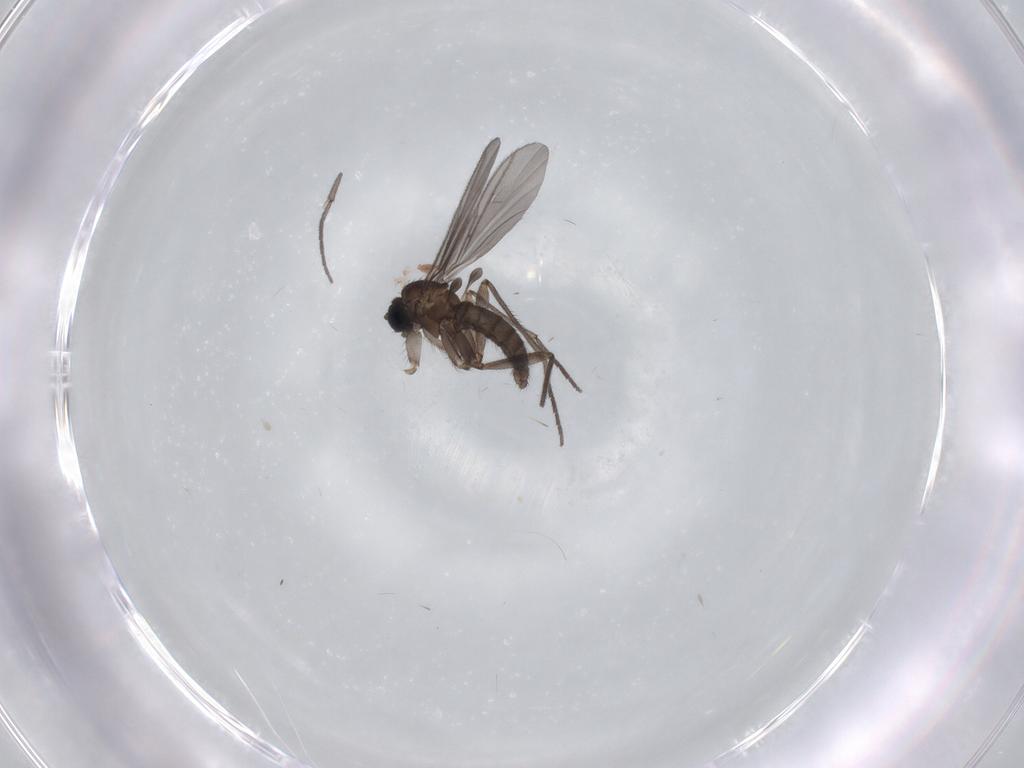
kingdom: Animalia
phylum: Arthropoda
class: Insecta
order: Diptera
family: Sciaridae
